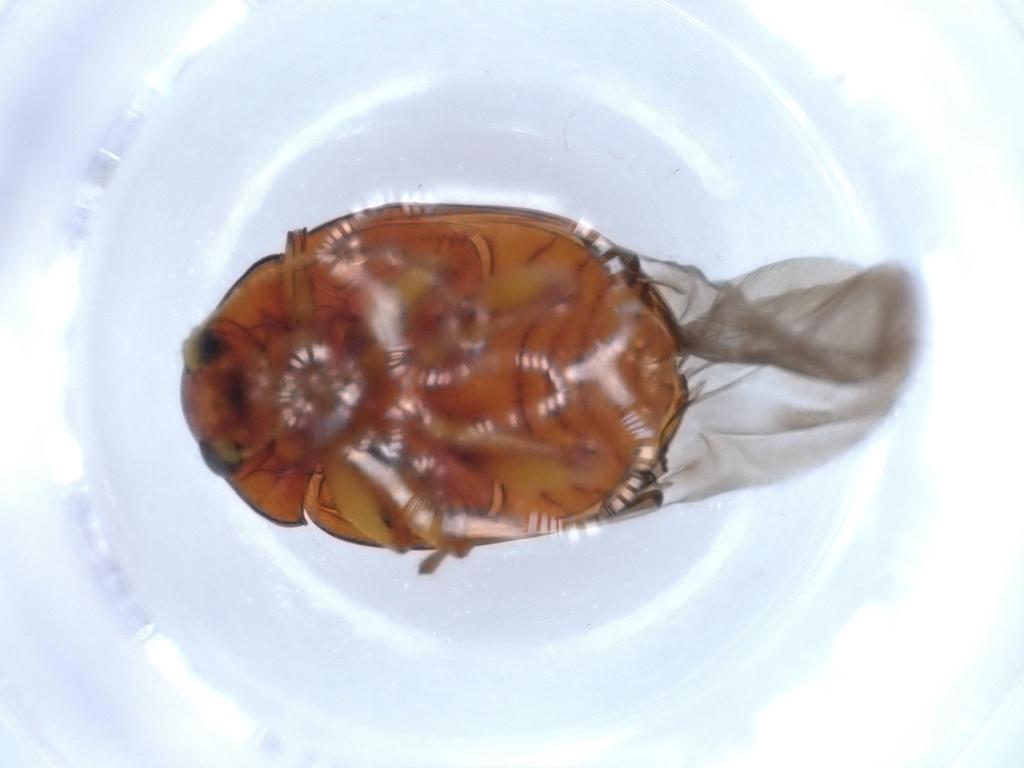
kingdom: Animalia
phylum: Arthropoda
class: Insecta
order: Coleoptera
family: Chrysomelidae
